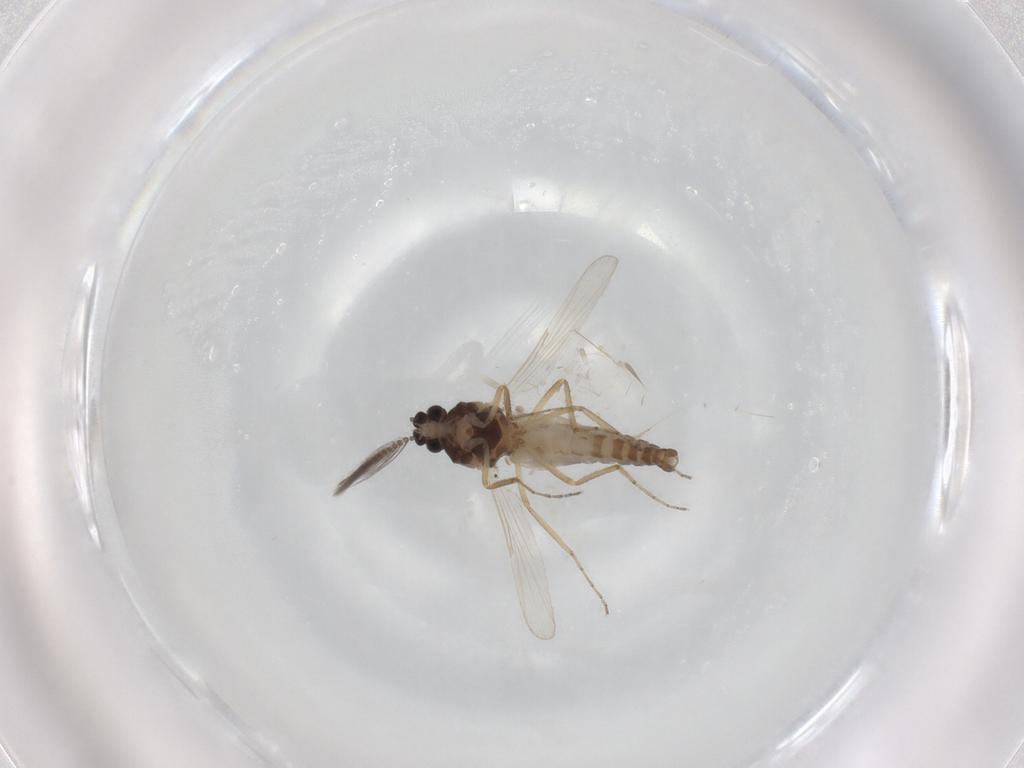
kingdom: Animalia
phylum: Arthropoda
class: Insecta
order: Diptera
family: Ceratopogonidae
